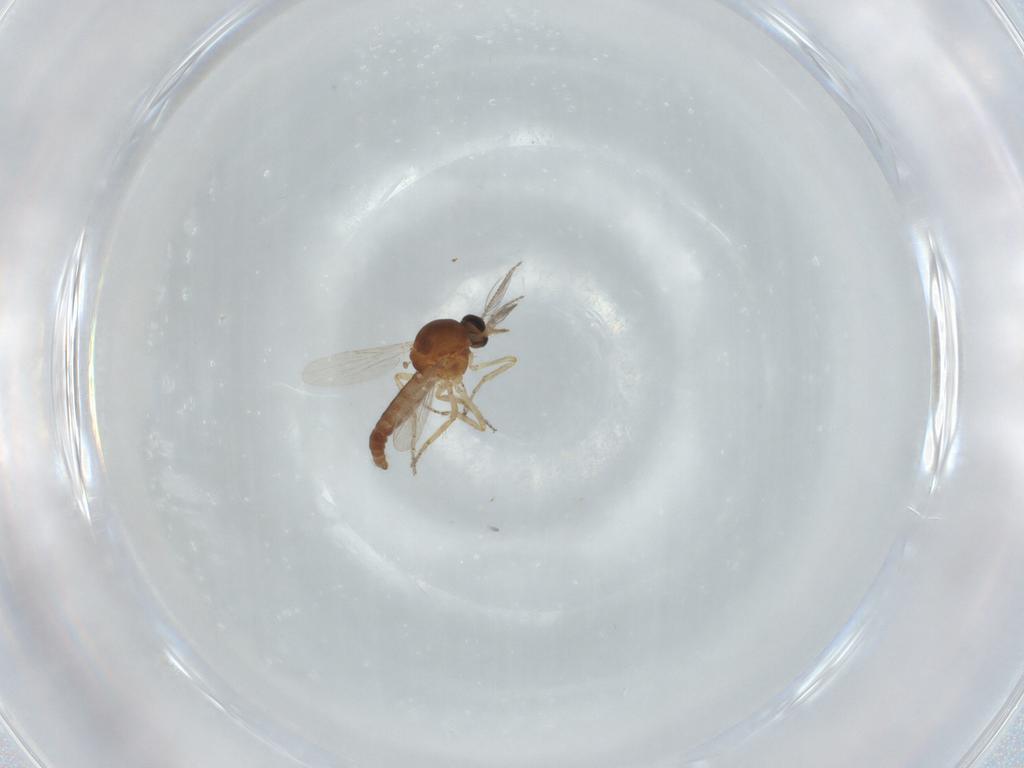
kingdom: Animalia
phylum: Arthropoda
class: Insecta
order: Diptera
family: Ceratopogonidae
